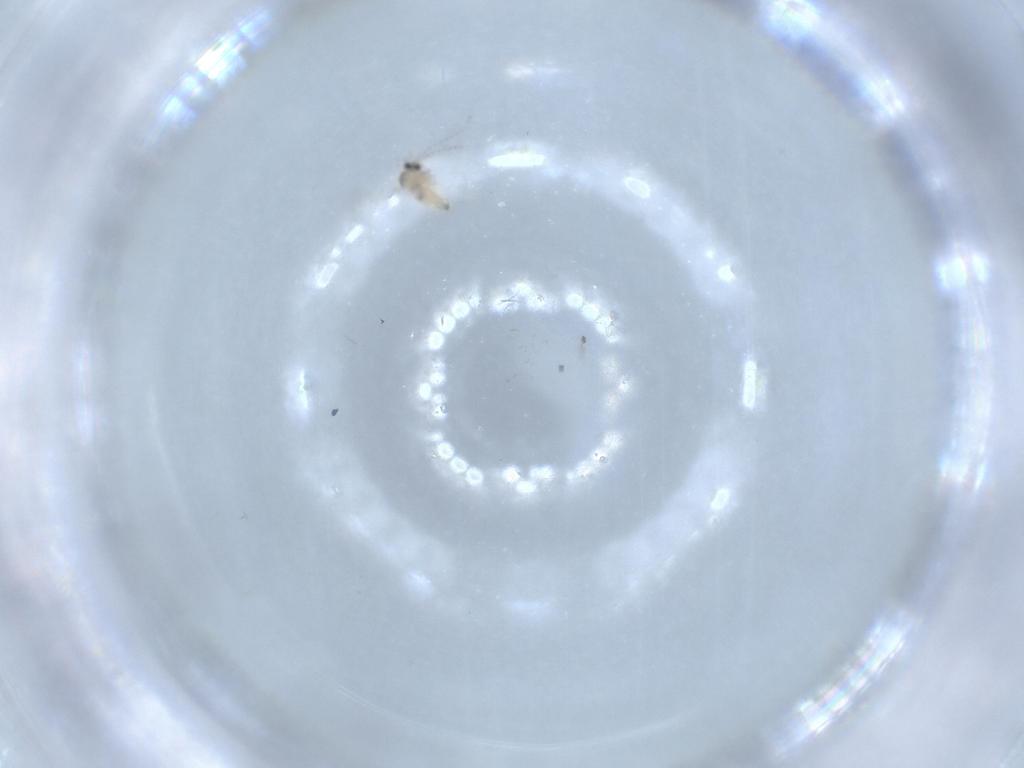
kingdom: Animalia
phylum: Arthropoda
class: Insecta
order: Diptera
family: Cecidomyiidae
